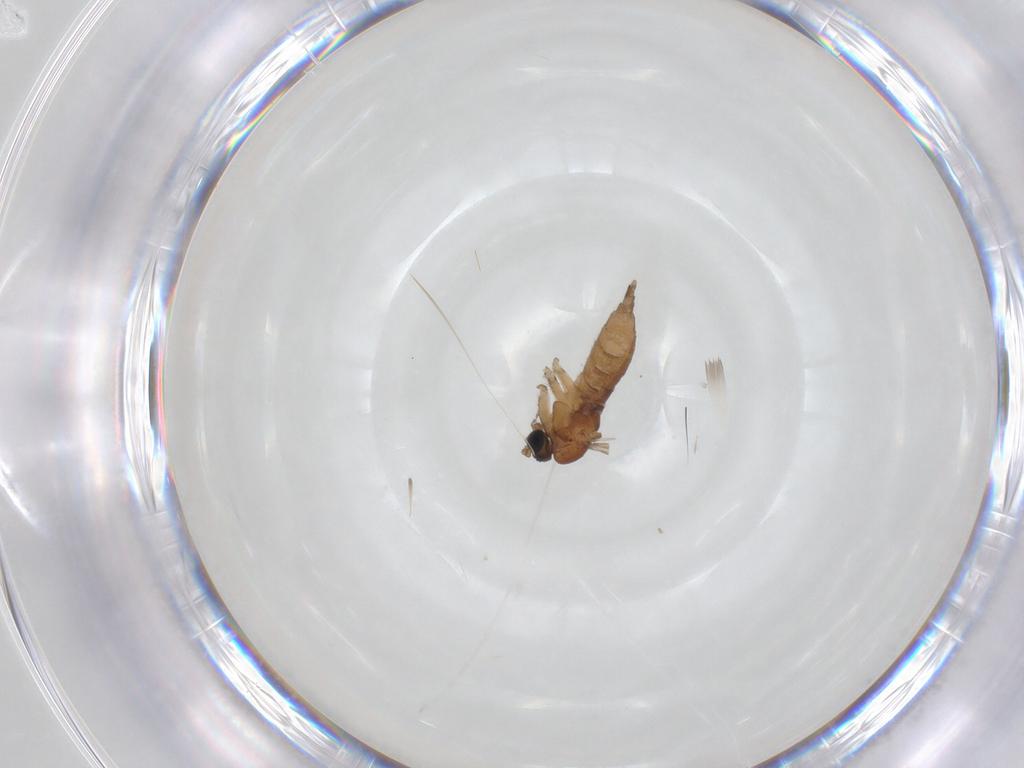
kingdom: Animalia
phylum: Arthropoda
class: Insecta
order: Diptera
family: Sciaridae
